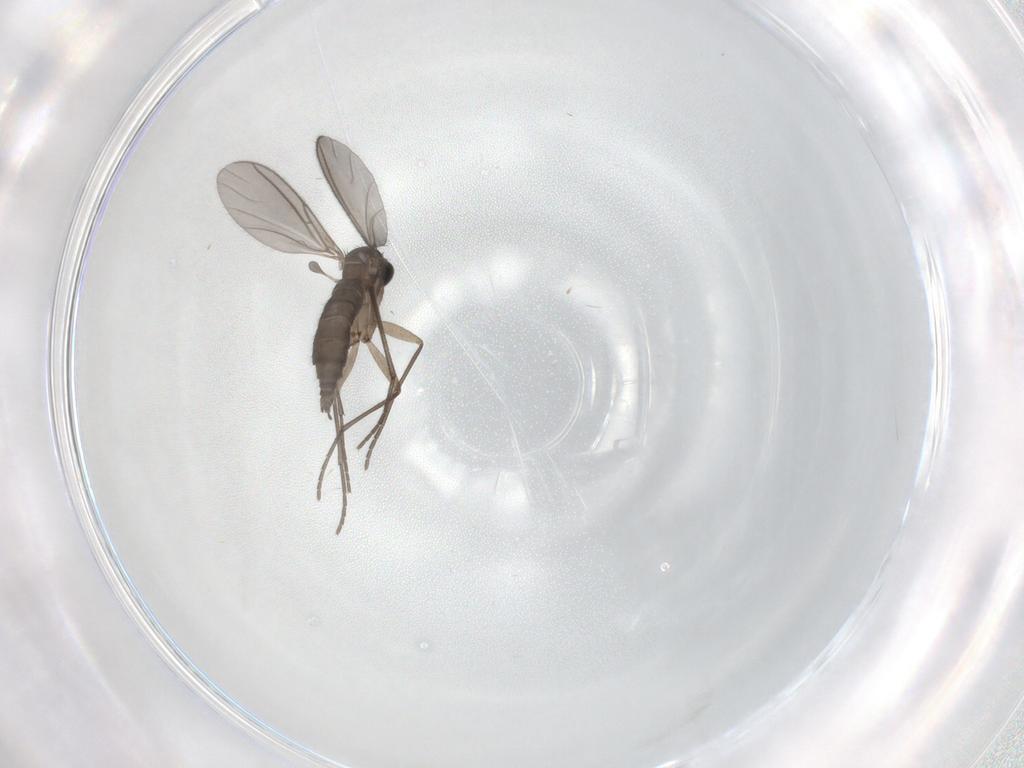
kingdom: Animalia
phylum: Arthropoda
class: Insecta
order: Diptera
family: Sciaridae
